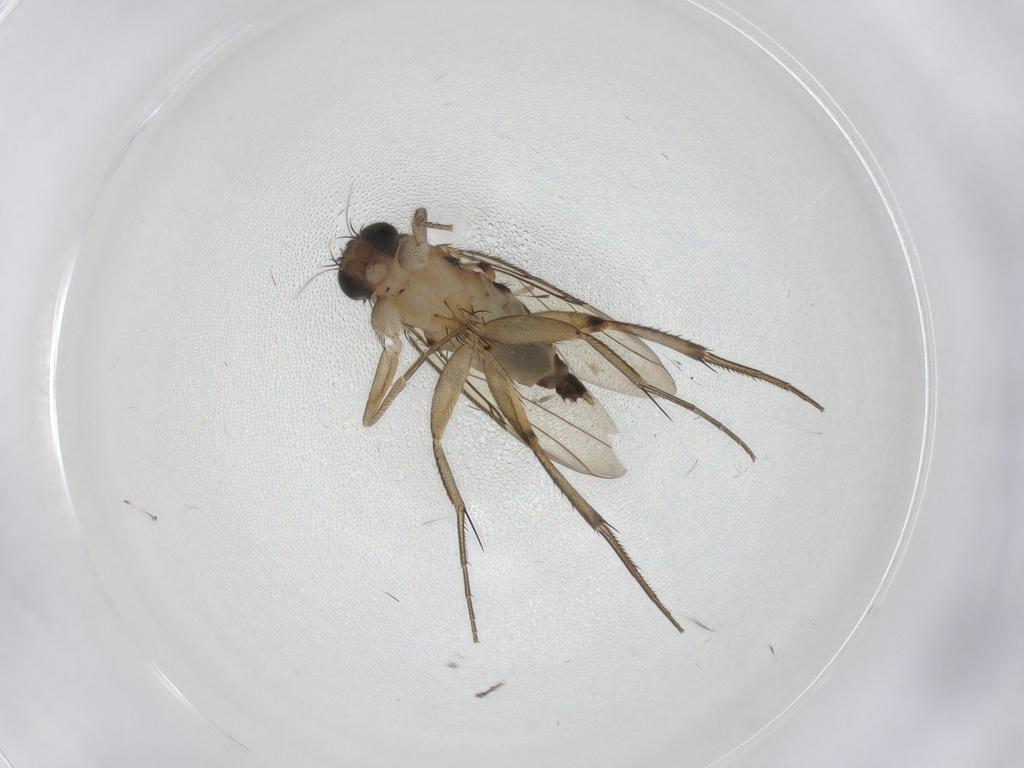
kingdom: Animalia
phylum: Arthropoda
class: Insecta
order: Diptera
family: Phoridae
